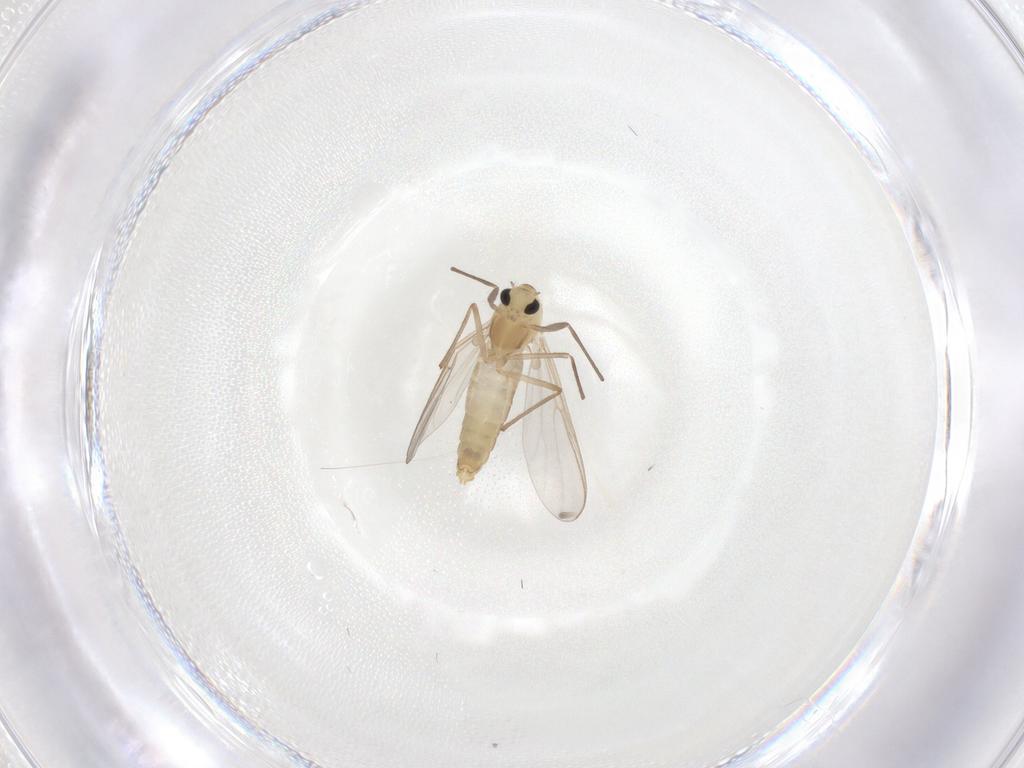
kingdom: Animalia
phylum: Arthropoda
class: Insecta
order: Diptera
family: Chironomidae
